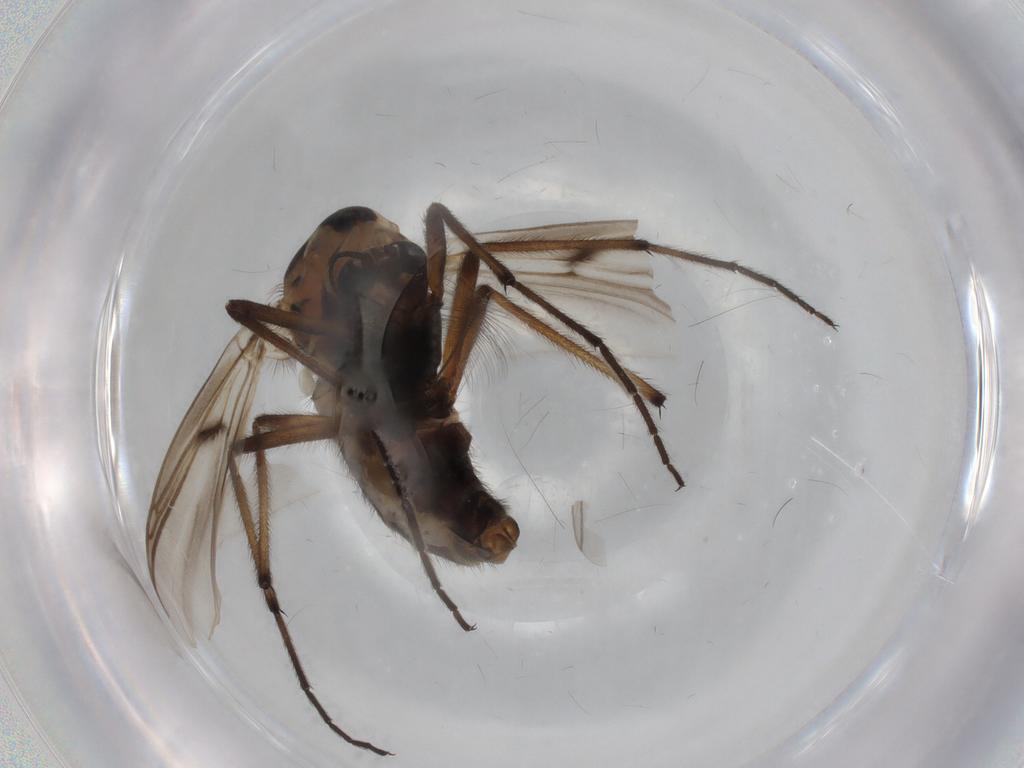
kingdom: Animalia
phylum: Arthropoda
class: Insecta
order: Diptera
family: Chironomidae
